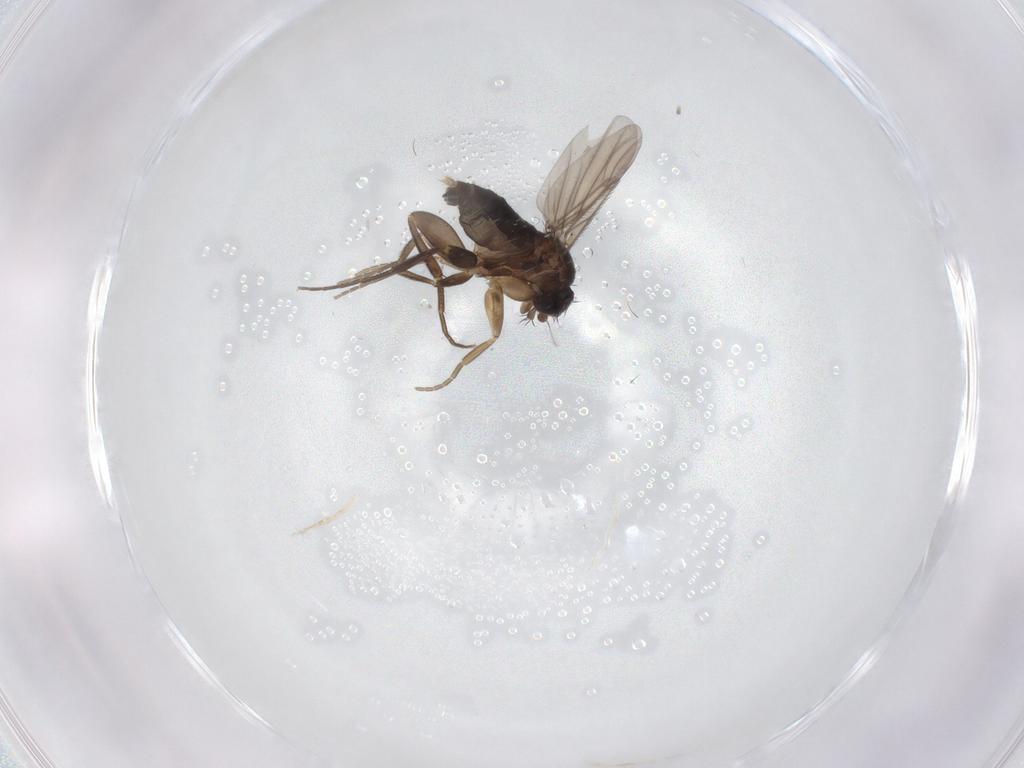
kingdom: Animalia
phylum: Arthropoda
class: Insecta
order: Diptera
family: Phoridae
